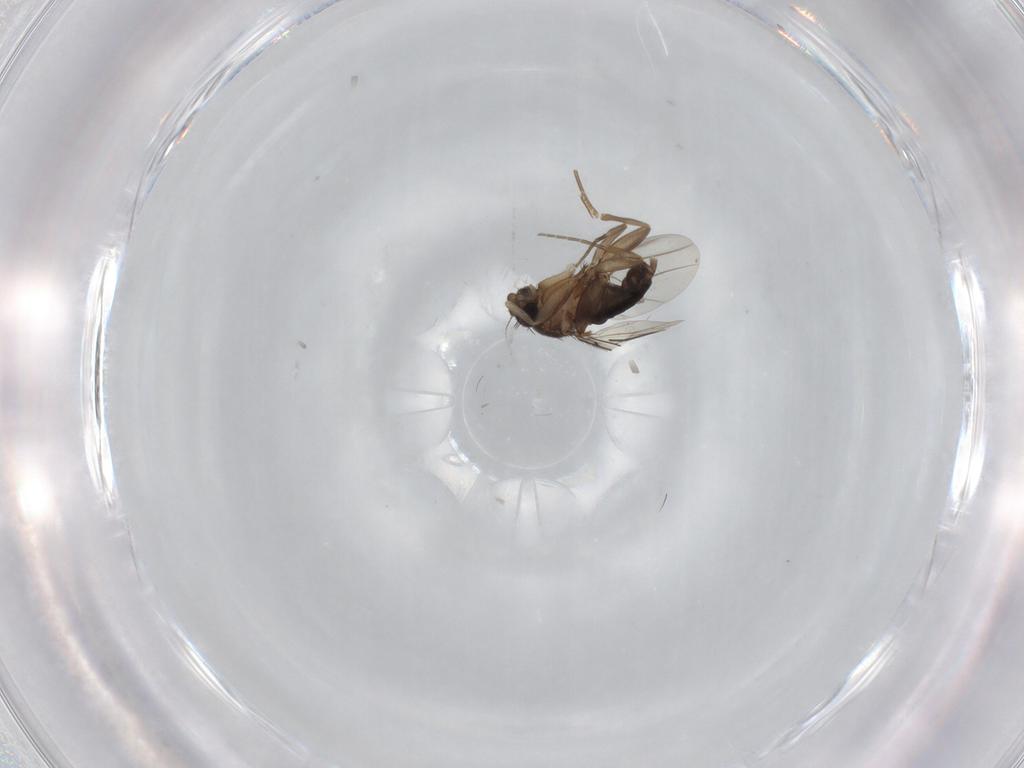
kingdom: Animalia
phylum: Arthropoda
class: Insecta
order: Diptera
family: Phoridae
